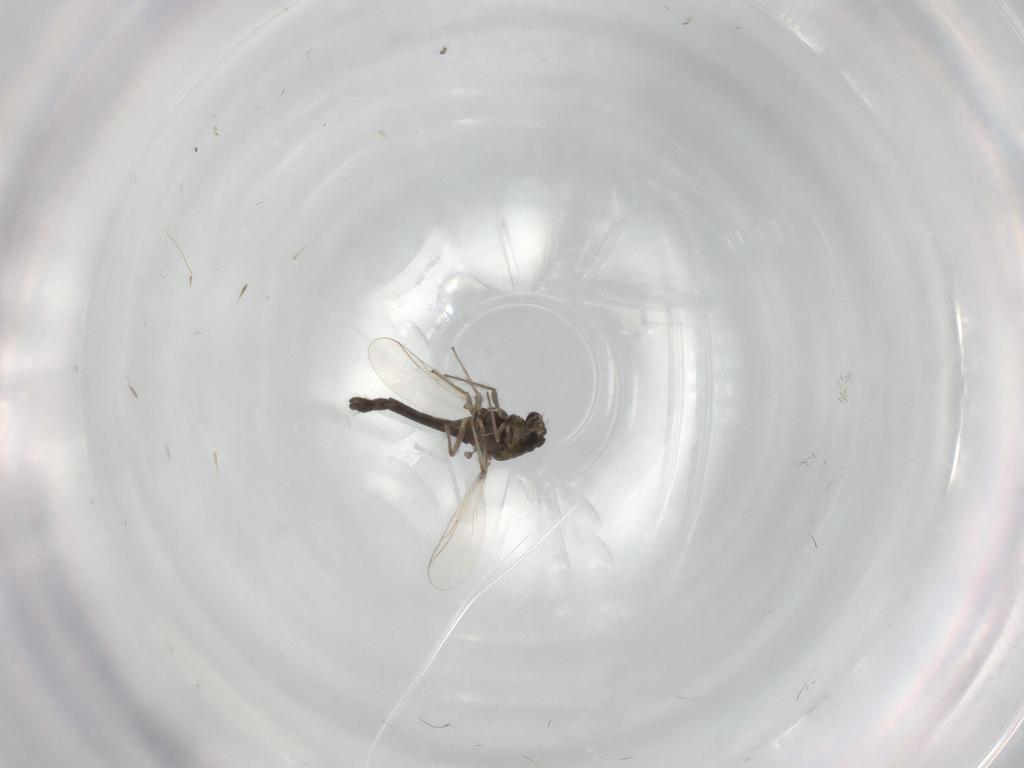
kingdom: Animalia
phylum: Arthropoda
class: Insecta
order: Diptera
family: Chironomidae
